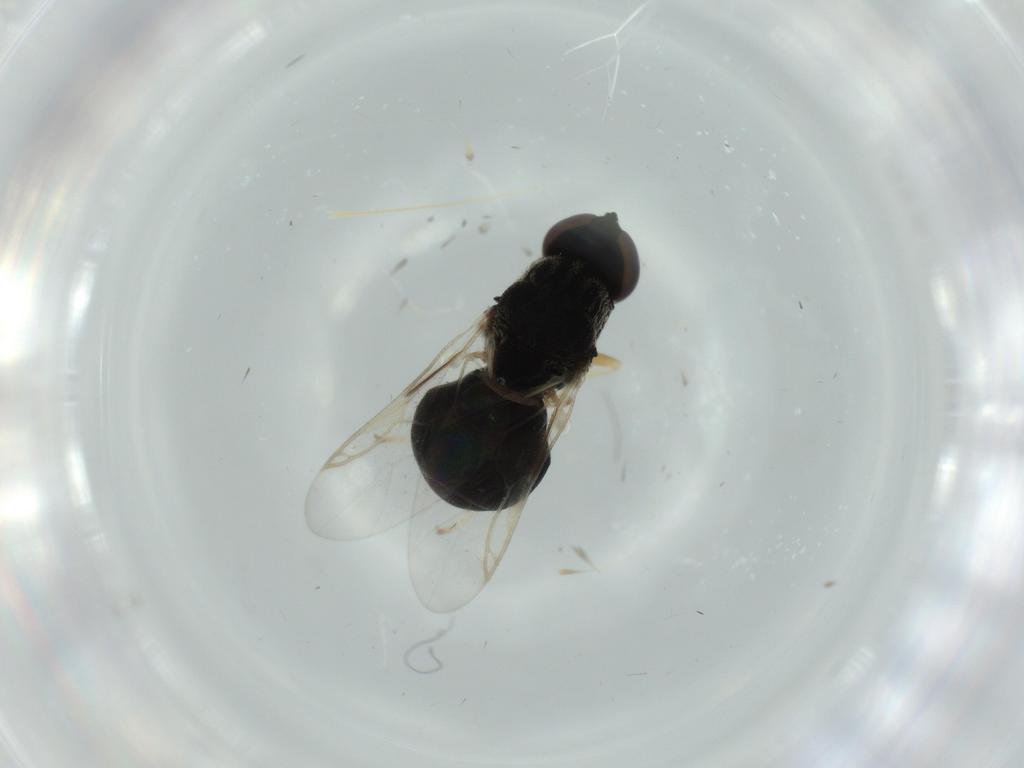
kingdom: Animalia
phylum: Arthropoda
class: Insecta
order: Diptera
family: Stratiomyidae
